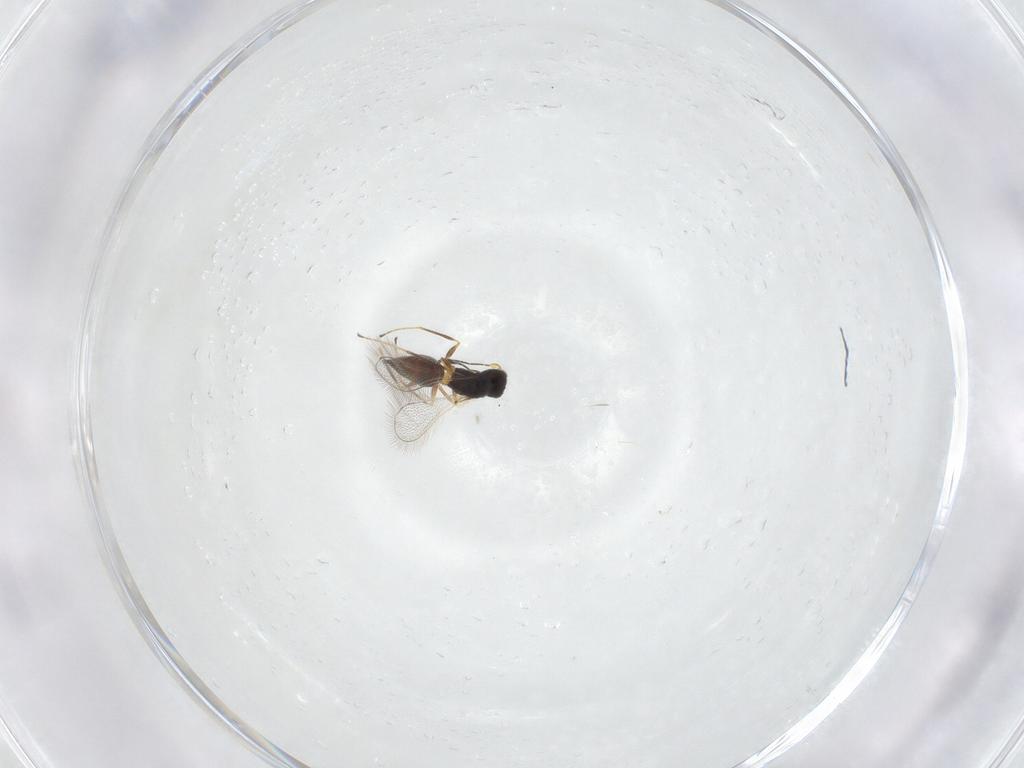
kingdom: Animalia
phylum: Arthropoda
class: Insecta
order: Hymenoptera
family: Mymaridae
